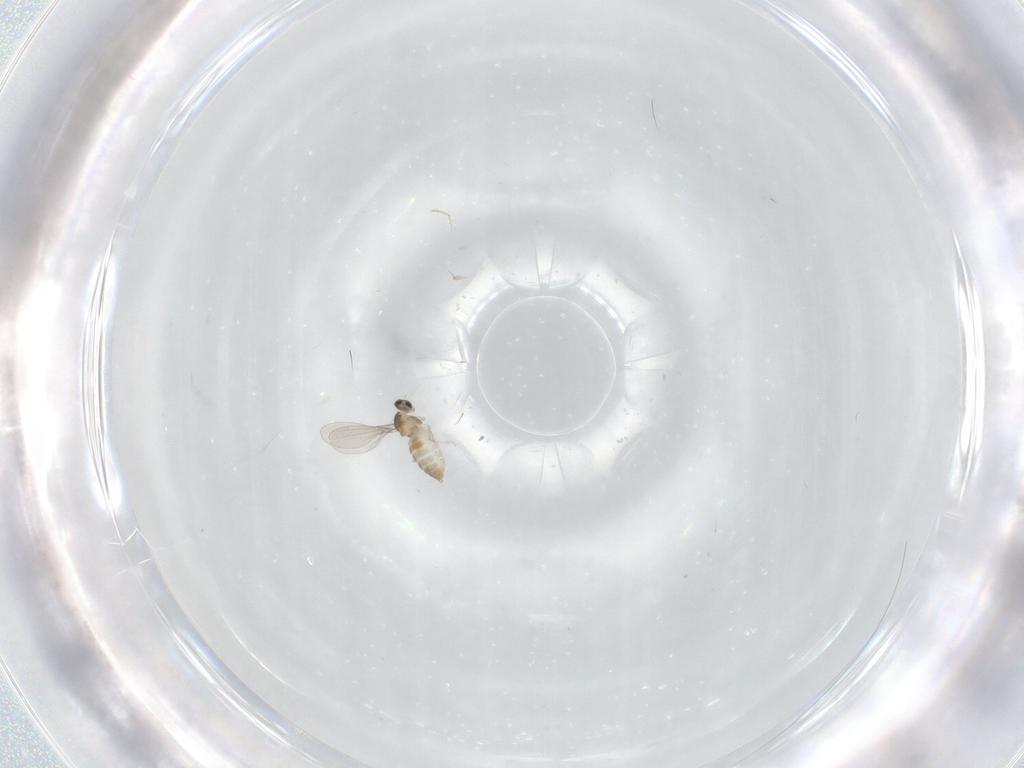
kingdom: Animalia
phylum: Arthropoda
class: Insecta
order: Diptera
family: Cecidomyiidae
